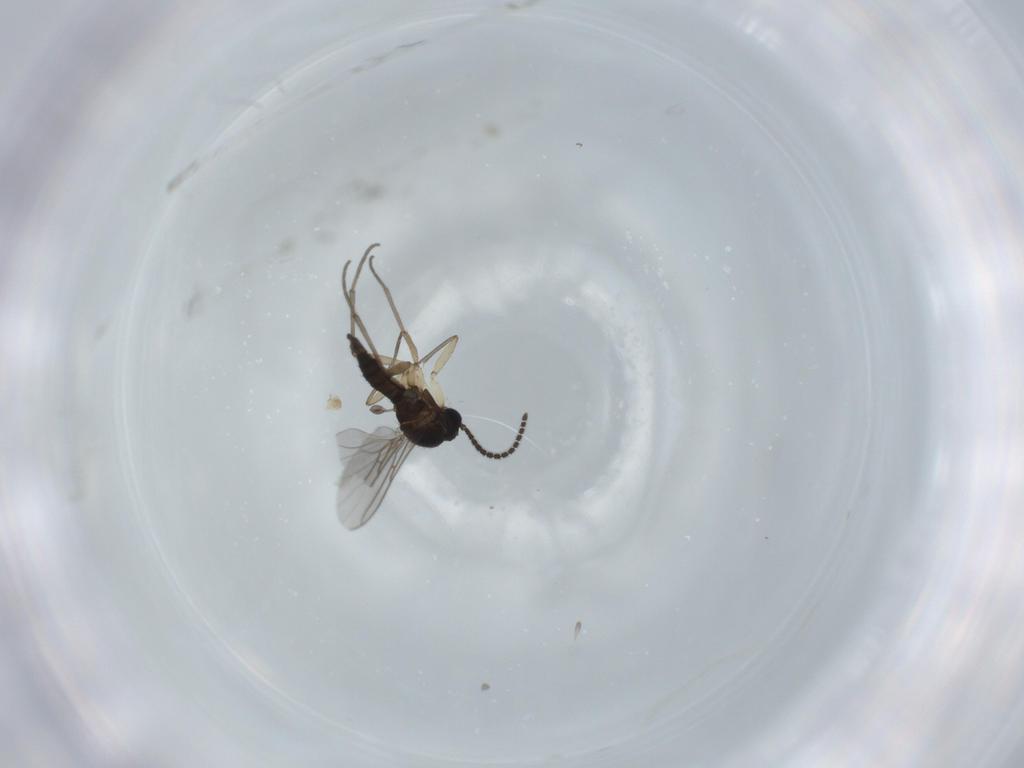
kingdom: Animalia
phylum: Arthropoda
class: Insecta
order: Diptera
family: Sciaridae
